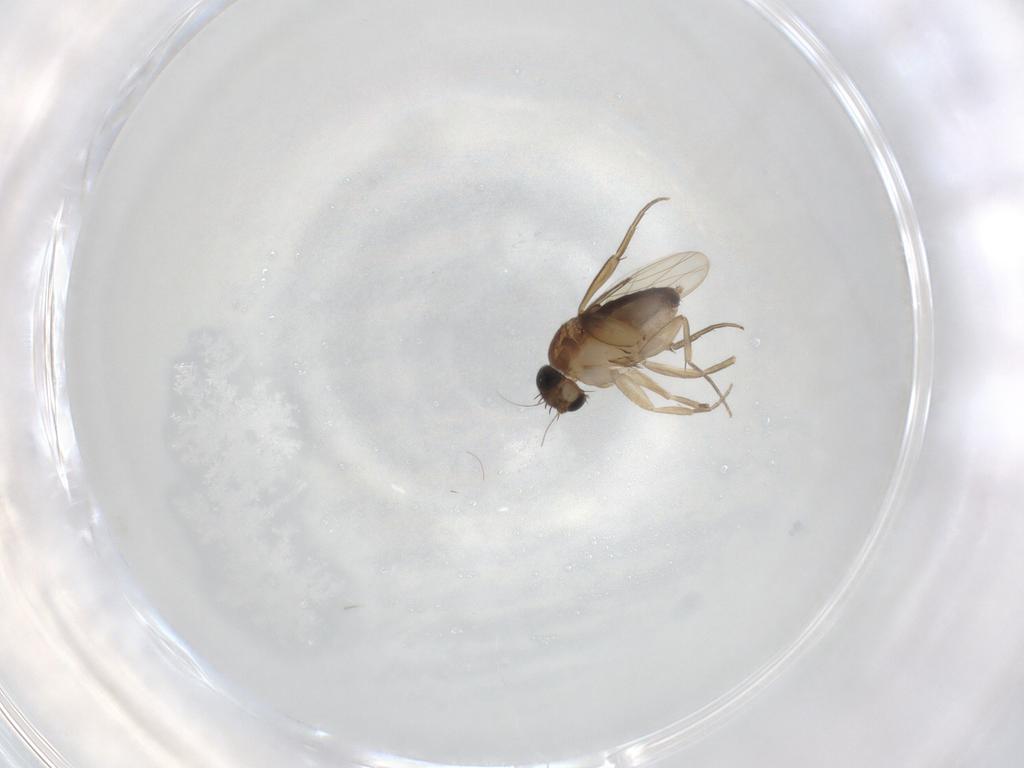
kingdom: Animalia
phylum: Arthropoda
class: Insecta
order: Diptera
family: Phoridae
